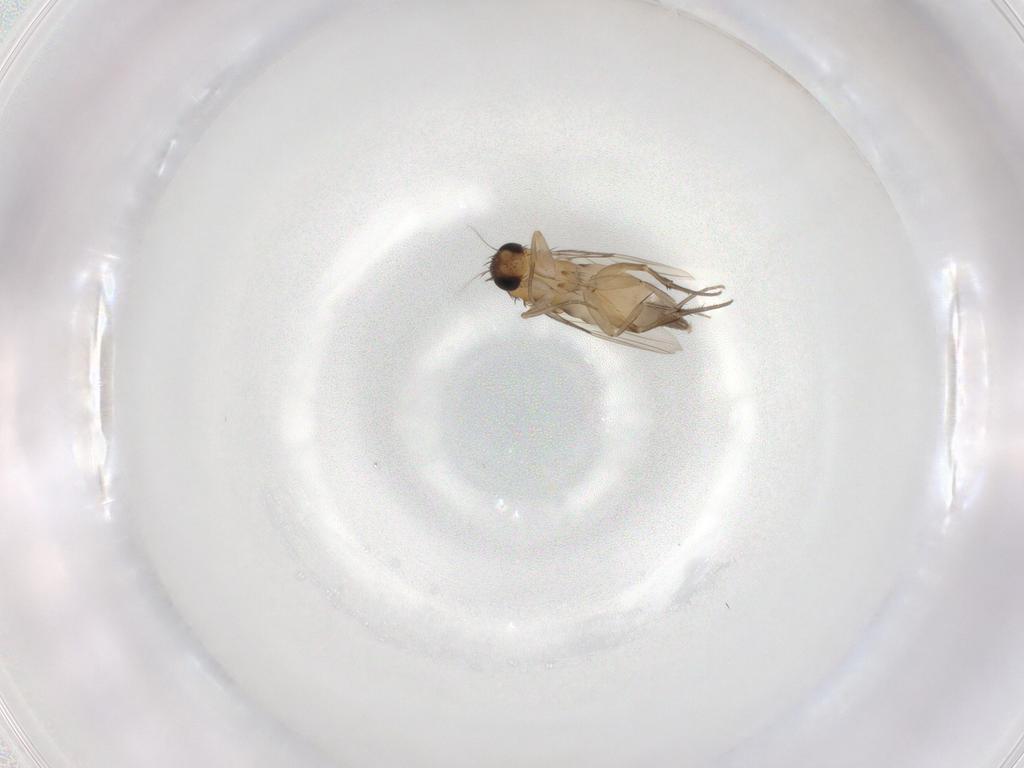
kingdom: Animalia
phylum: Arthropoda
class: Insecta
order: Diptera
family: Phoridae
